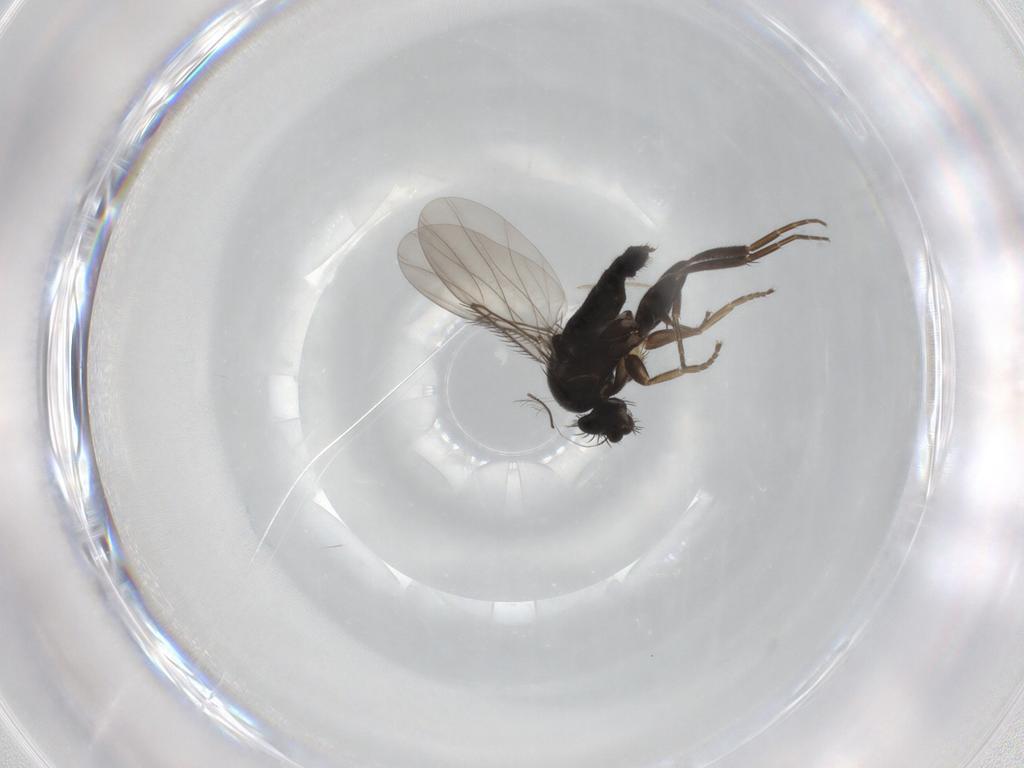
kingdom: Animalia
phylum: Arthropoda
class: Insecta
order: Diptera
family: Phoridae
